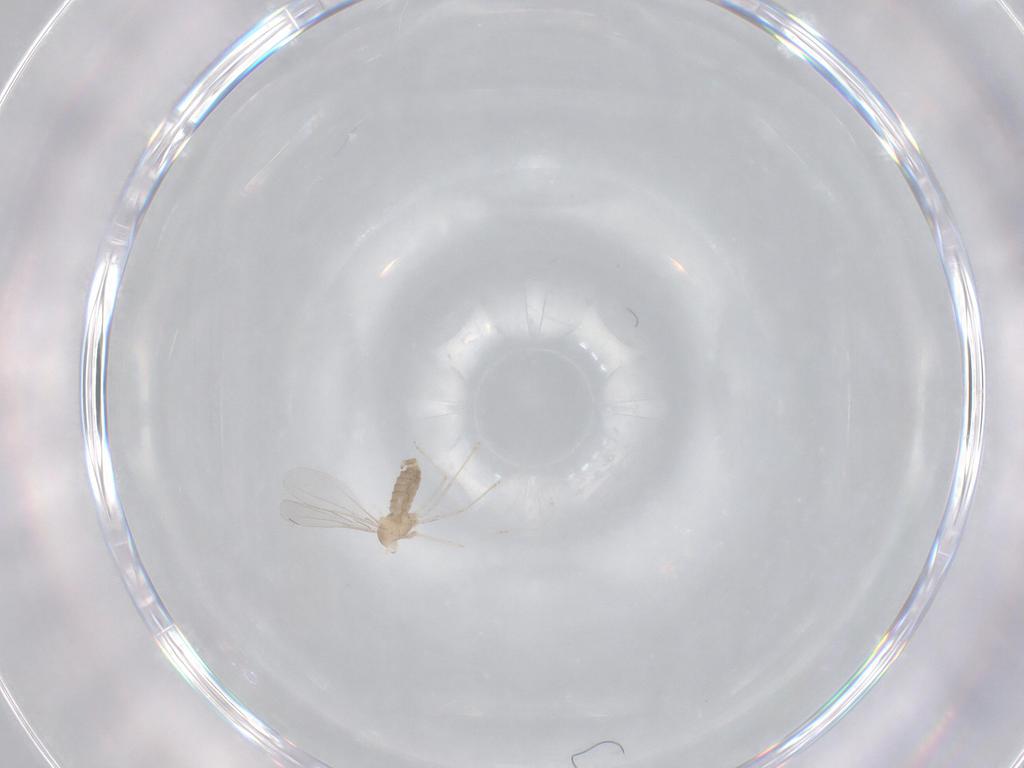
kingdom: Animalia
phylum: Arthropoda
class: Insecta
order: Diptera
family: Cecidomyiidae
